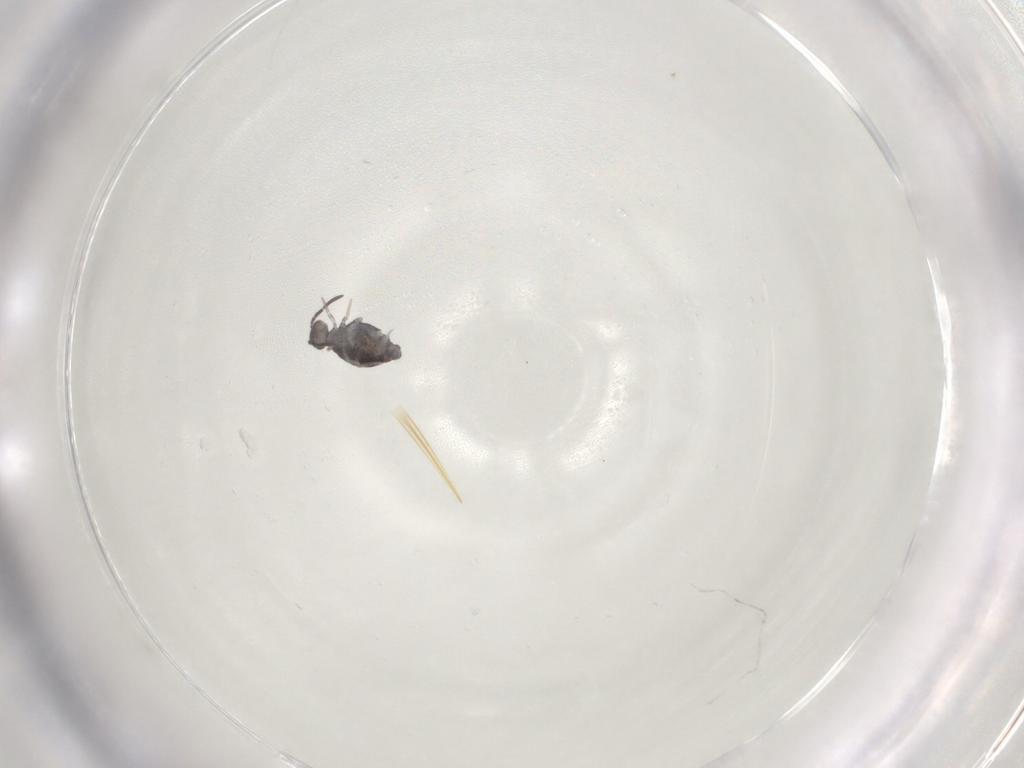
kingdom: Animalia
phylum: Arthropoda
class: Collembola
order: Symphypleona
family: Katiannidae
